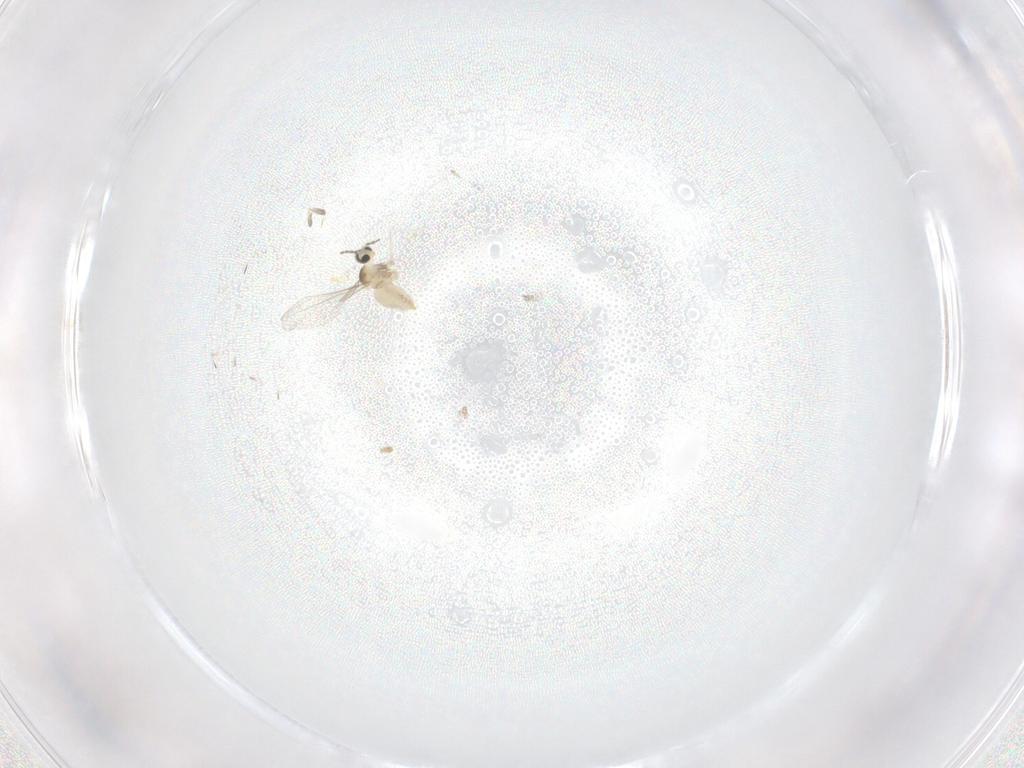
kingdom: Animalia
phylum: Arthropoda
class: Insecta
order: Diptera
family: Cecidomyiidae
